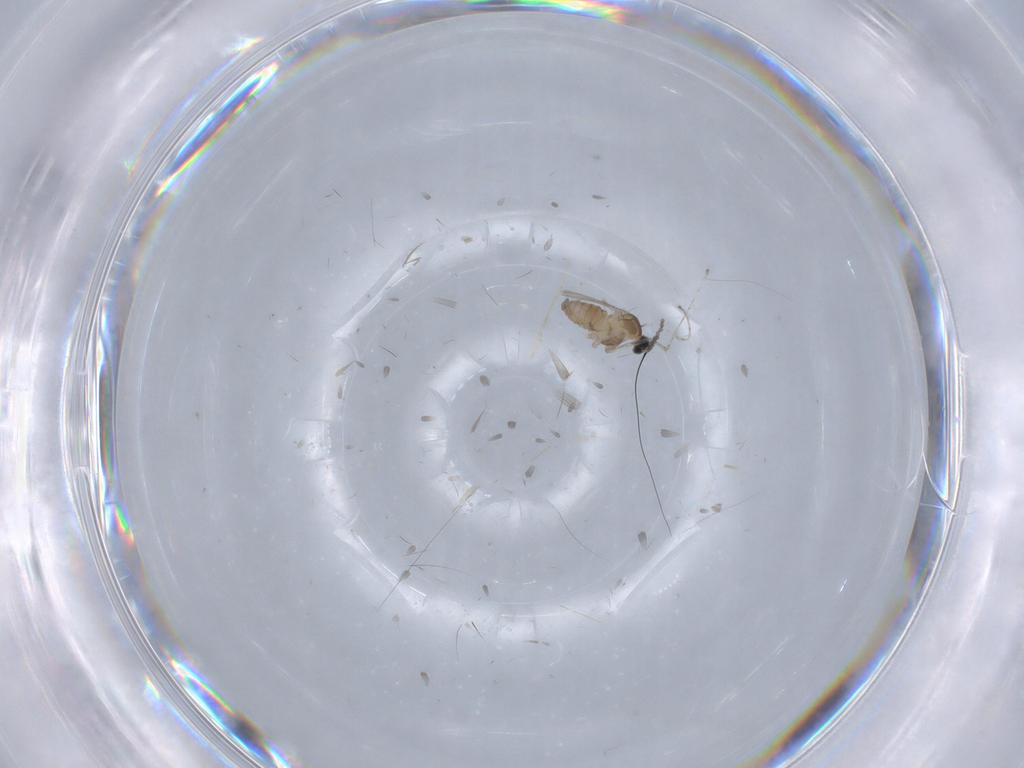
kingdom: Animalia
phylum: Arthropoda
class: Insecta
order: Diptera
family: Cecidomyiidae
